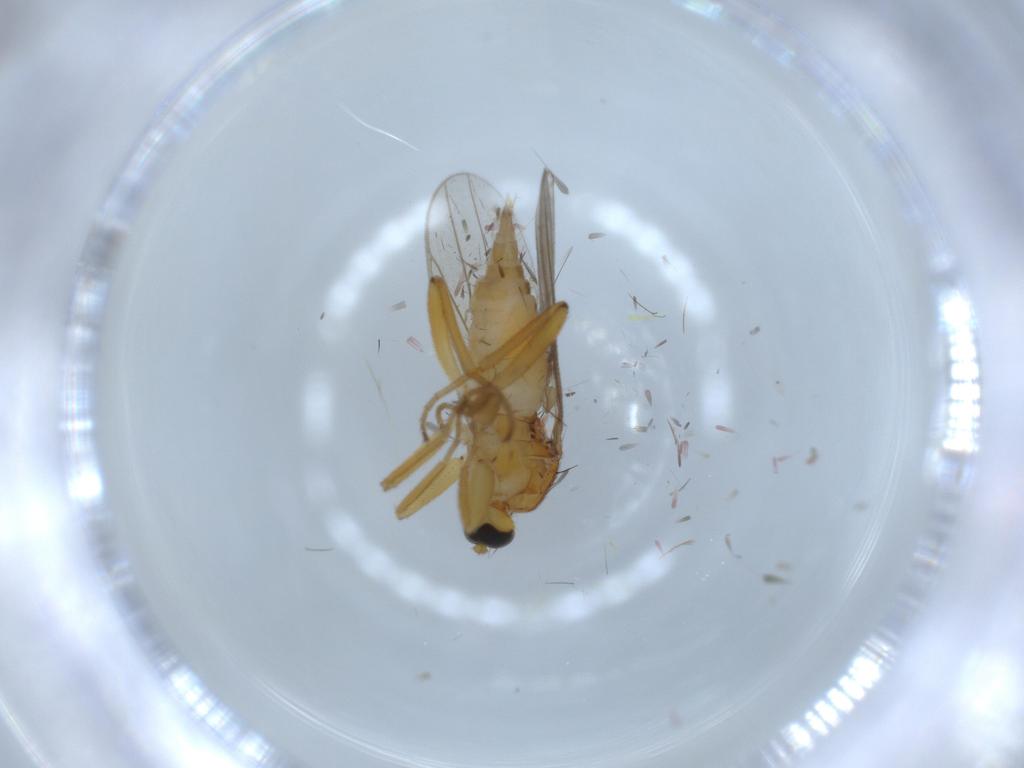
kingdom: Animalia
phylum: Arthropoda
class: Insecta
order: Diptera
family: Hybotidae
